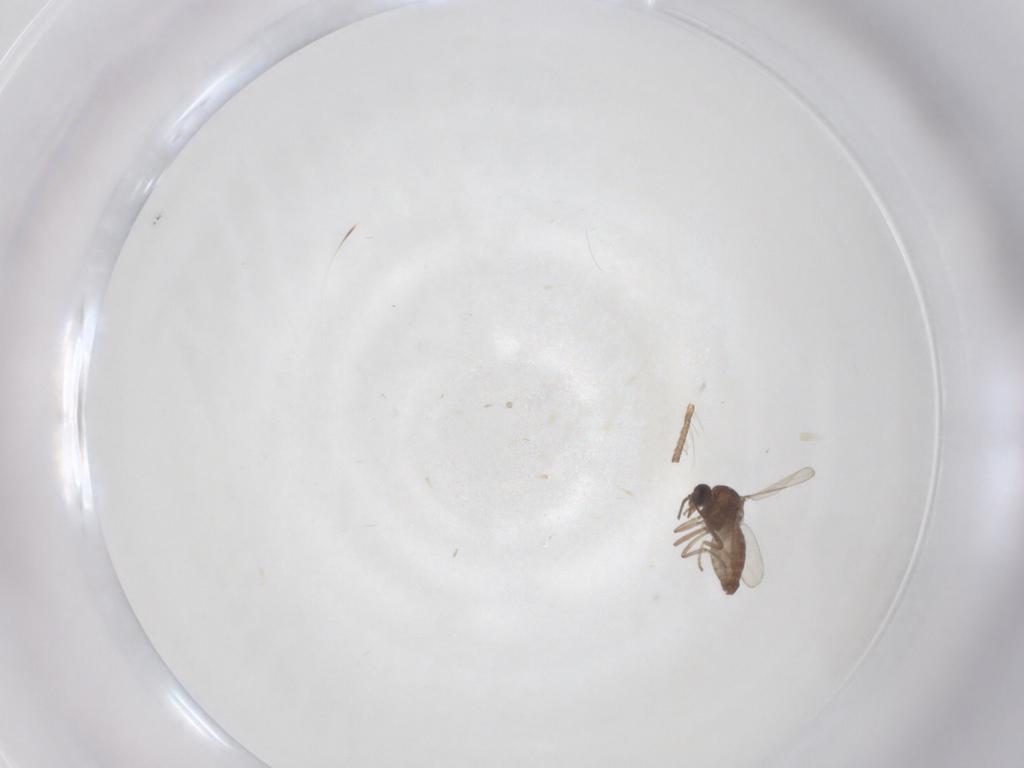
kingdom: Animalia
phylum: Arthropoda
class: Insecta
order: Diptera
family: Ceratopogonidae
